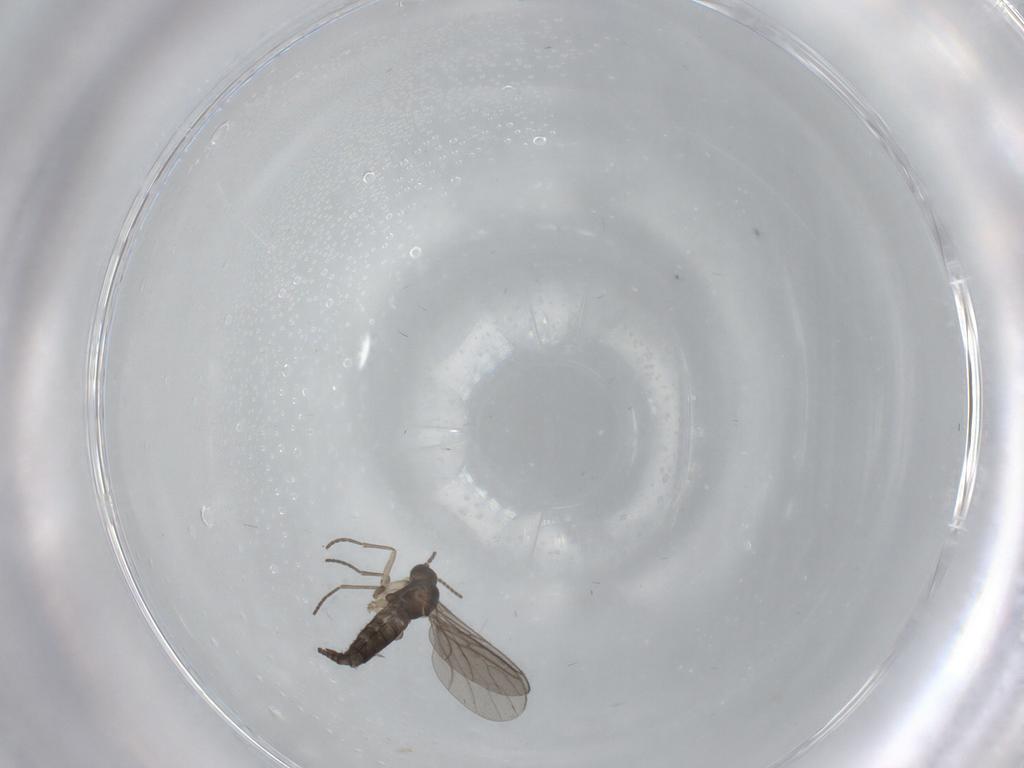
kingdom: Animalia
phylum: Arthropoda
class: Insecta
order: Diptera
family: Sciaridae
